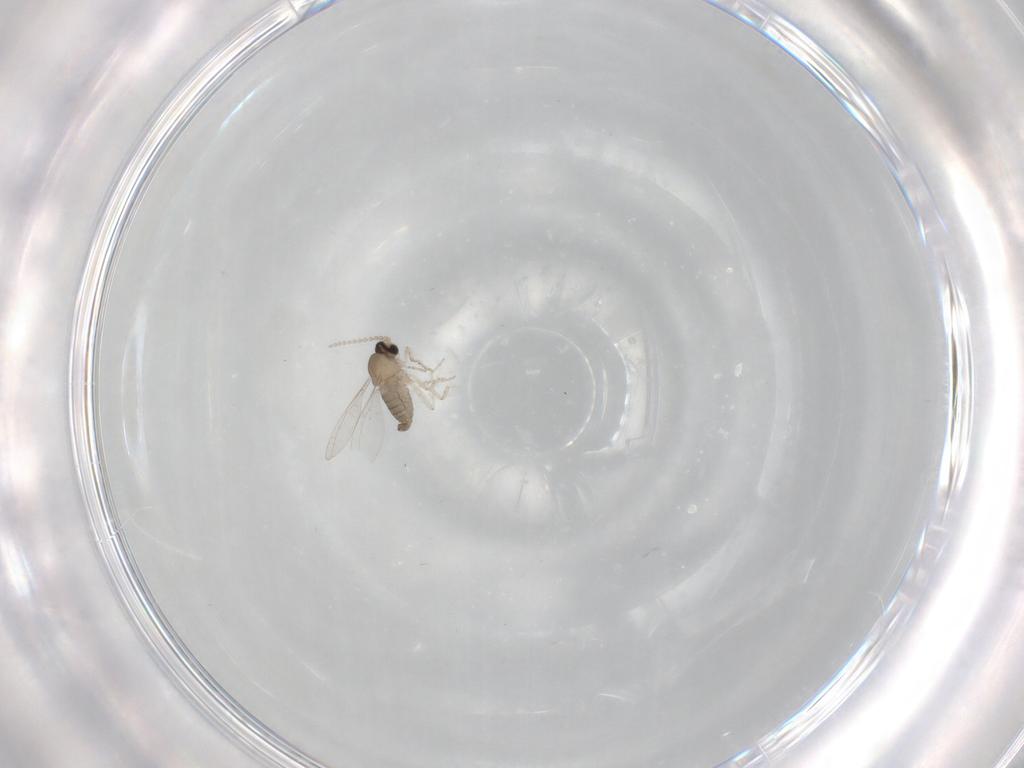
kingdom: Animalia
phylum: Arthropoda
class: Insecta
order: Diptera
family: Cecidomyiidae
